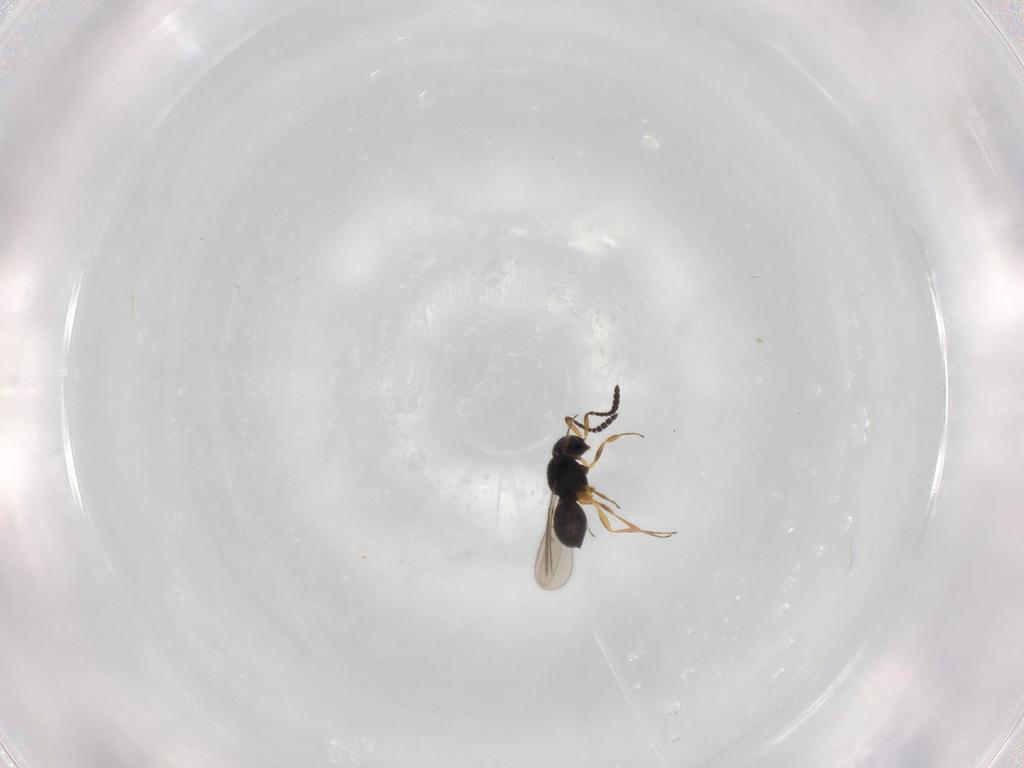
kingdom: Animalia
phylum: Arthropoda
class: Insecta
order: Hymenoptera
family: Scelionidae
